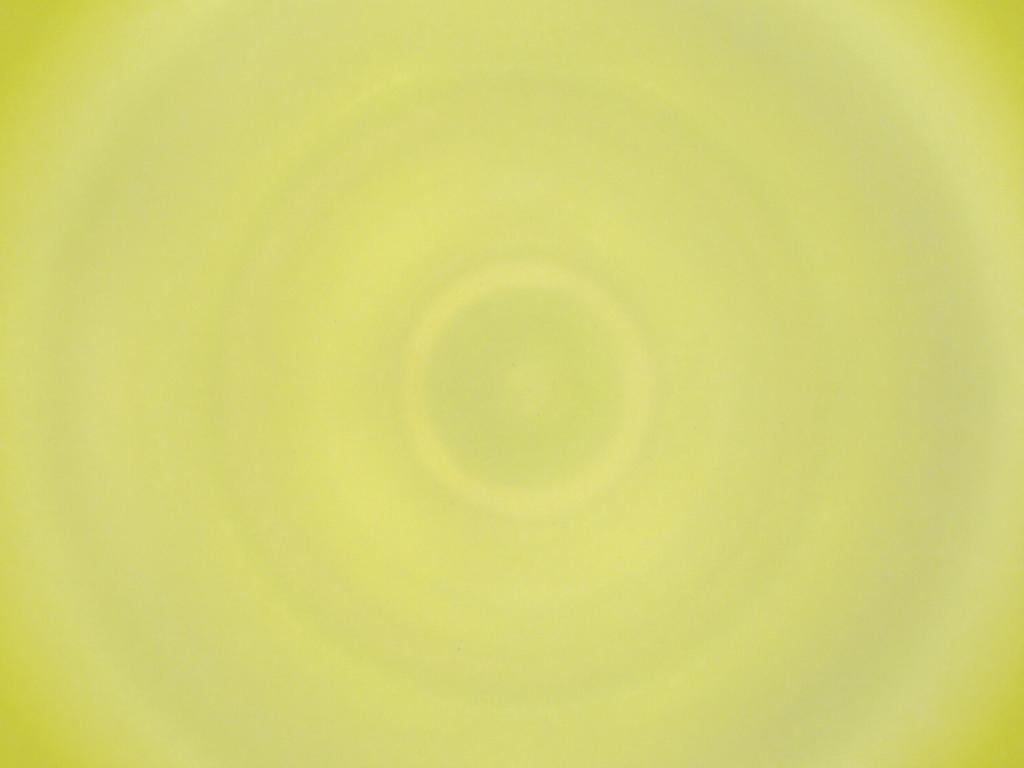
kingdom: Animalia
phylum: Arthropoda
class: Insecta
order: Diptera
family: Cecidomyiidae
